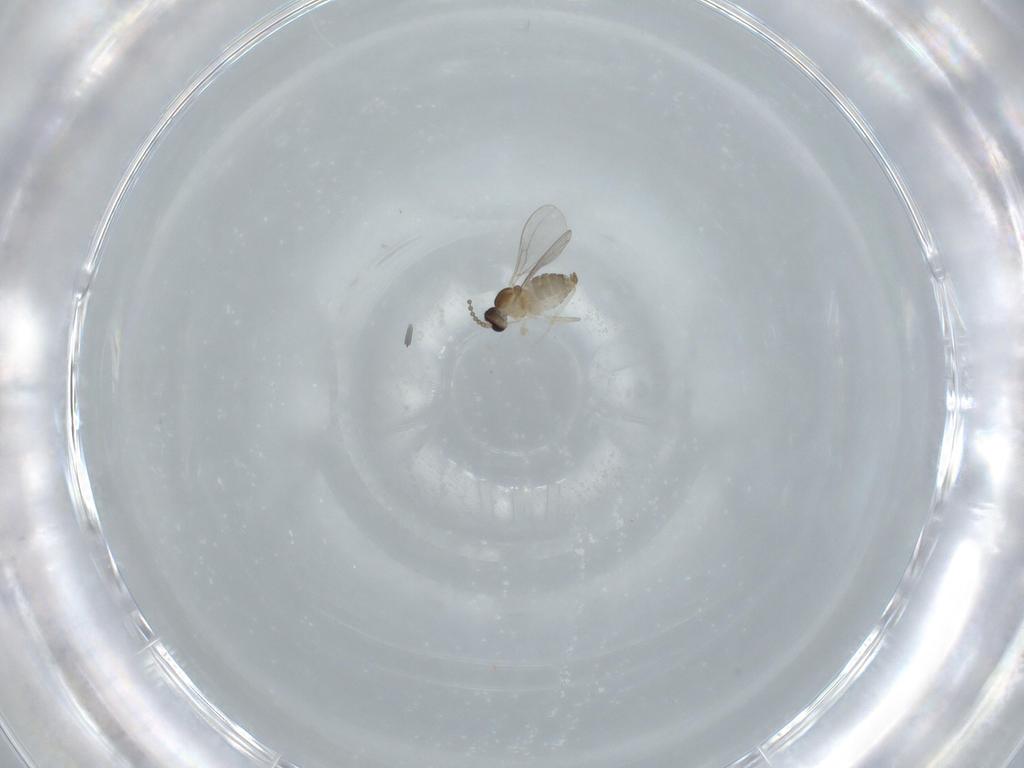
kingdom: Animalia
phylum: Arthropoda
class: Insecta
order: Diptera
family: Cecidomyiidae
